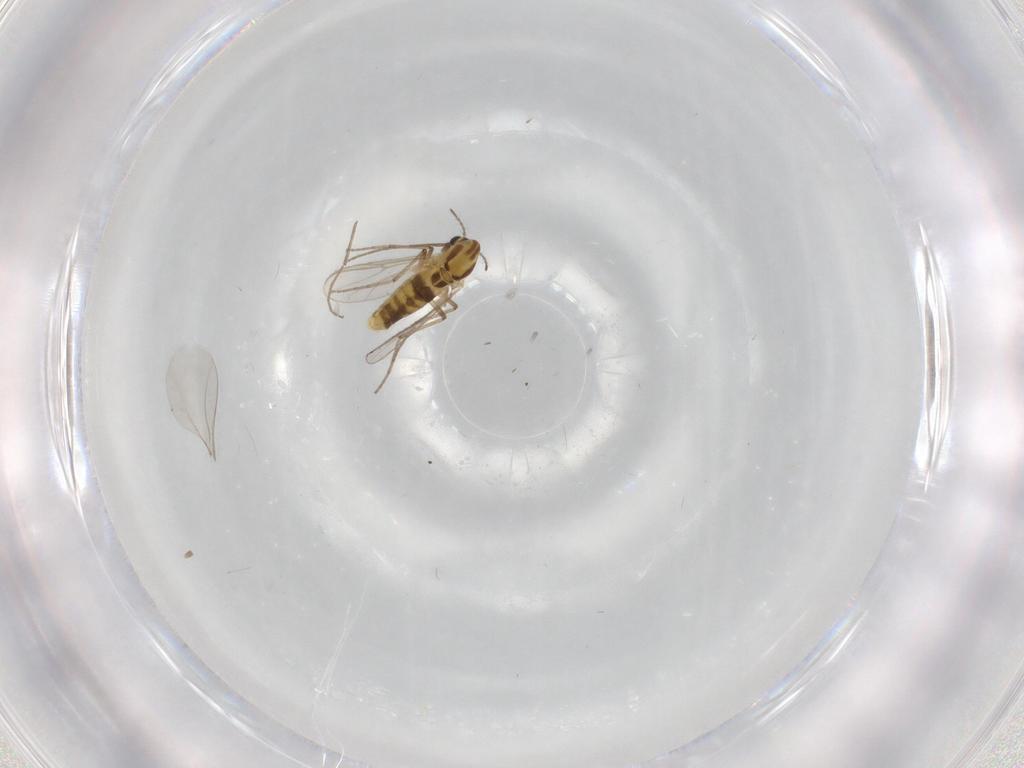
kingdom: Animalia
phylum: Arthropoda
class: Insecta
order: Diptera
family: Chironomidae
